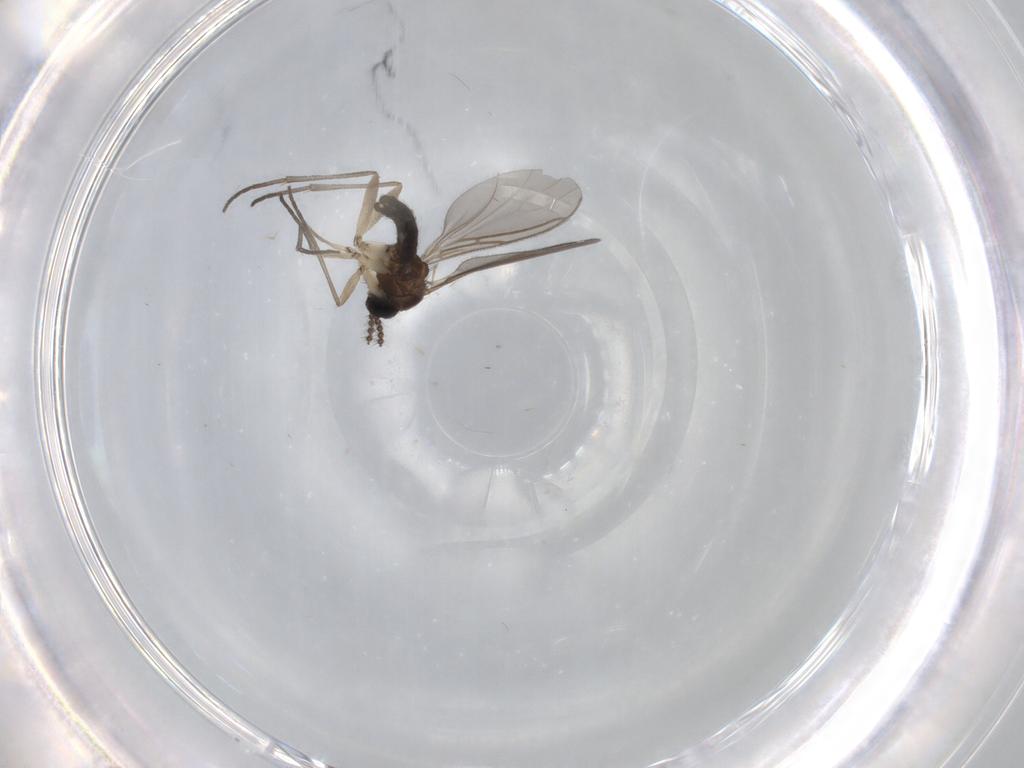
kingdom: Animalia
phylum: Arthropoda
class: Insecta
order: Diptera
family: Sciaridae
